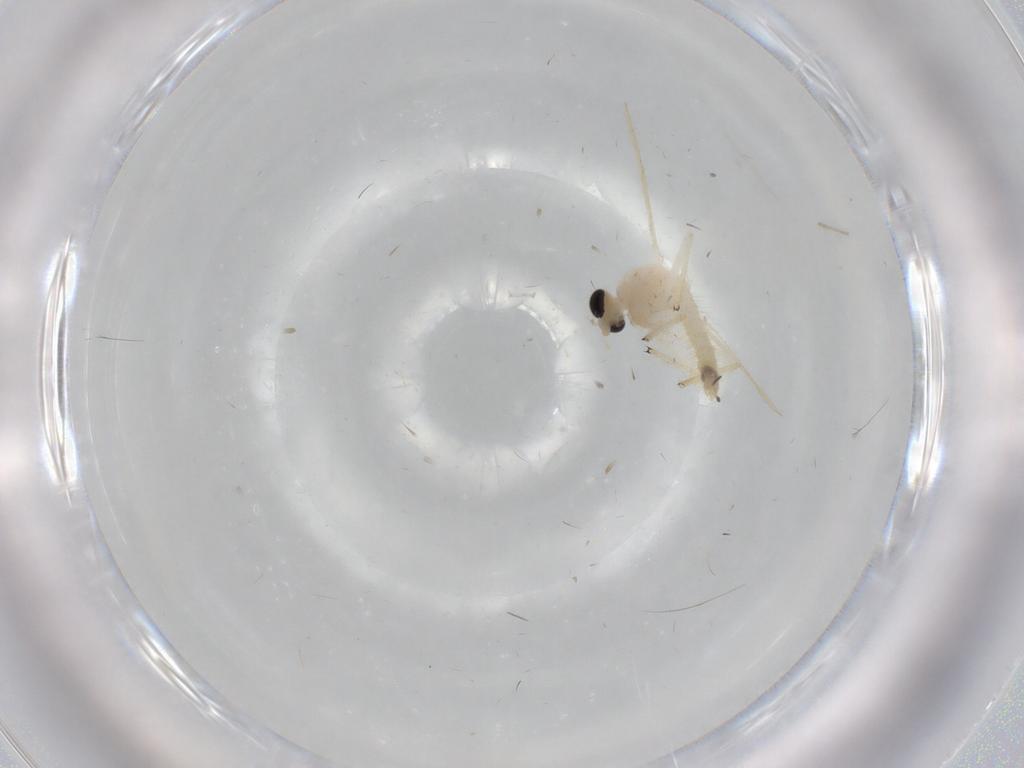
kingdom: Animalia
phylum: Arthropoda
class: Insecta
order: Diptera
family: Chironomidae
